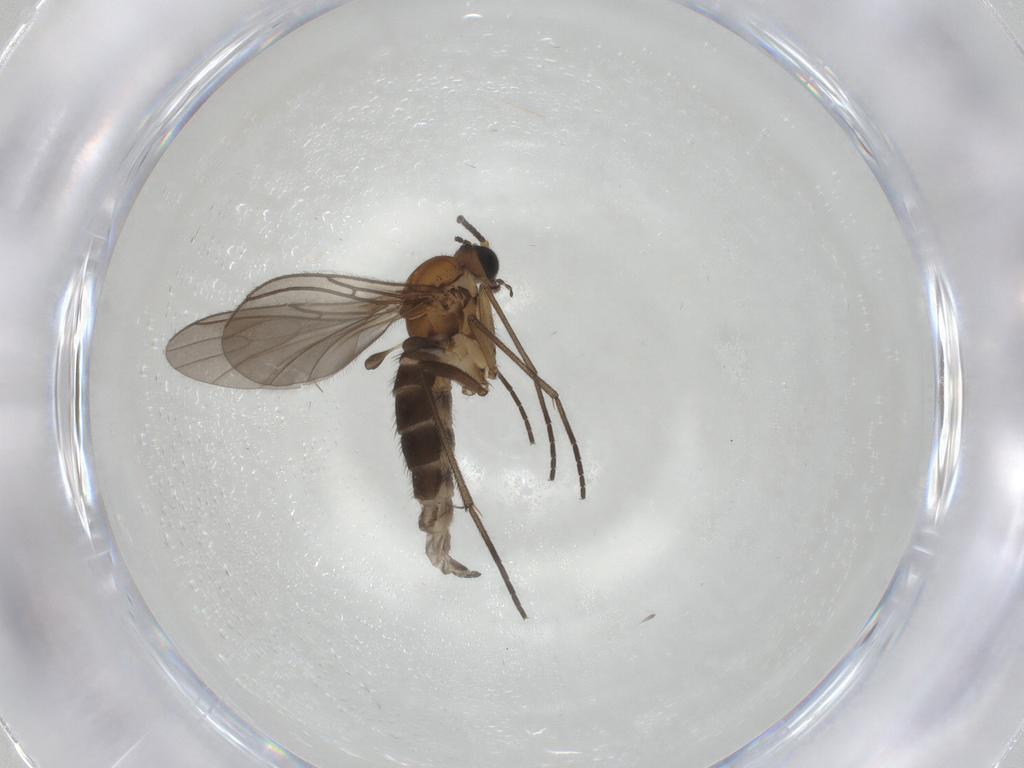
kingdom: Animalia
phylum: Arthropoda
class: Insecta
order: Diptera
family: Sciaridae
